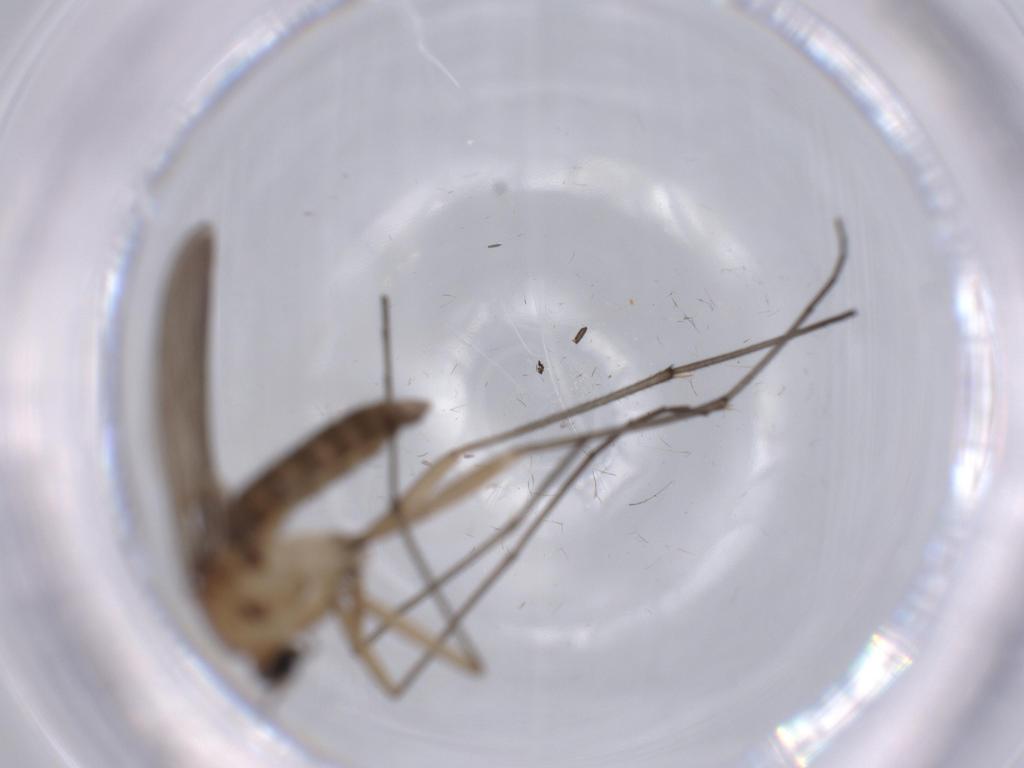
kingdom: Animalia
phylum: Arthropoda
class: Insecta
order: Diptera
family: Sciaridae
